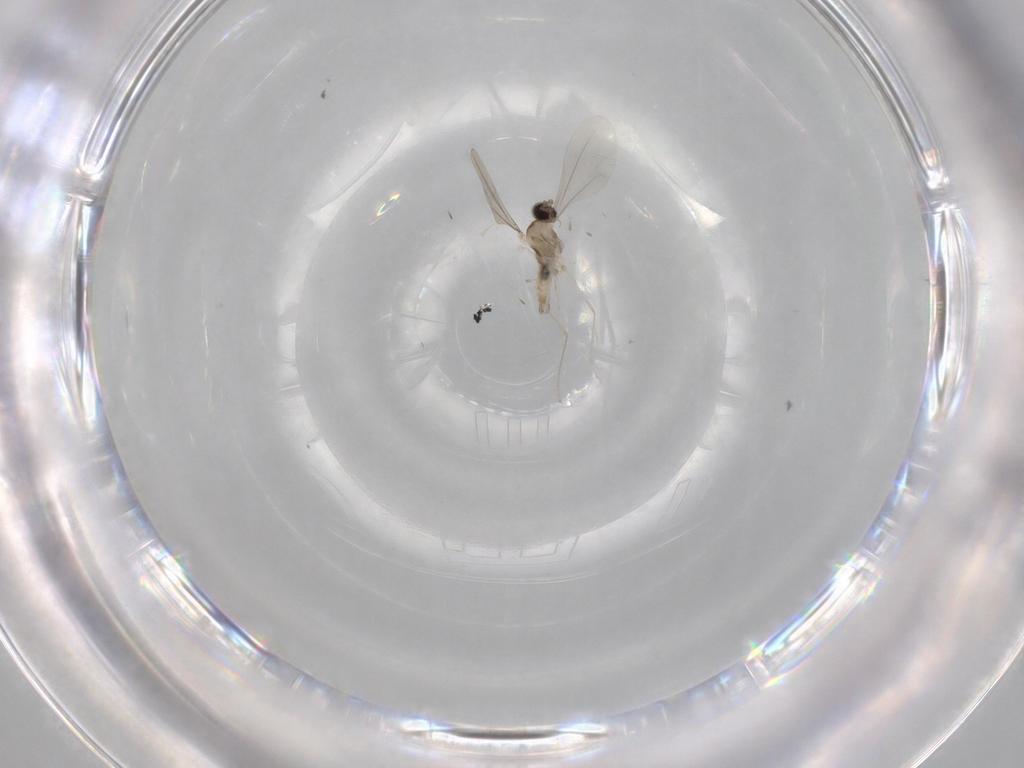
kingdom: Animalia
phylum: Arthropoda
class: Insecta
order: Diptera
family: Cecidomyiidae
